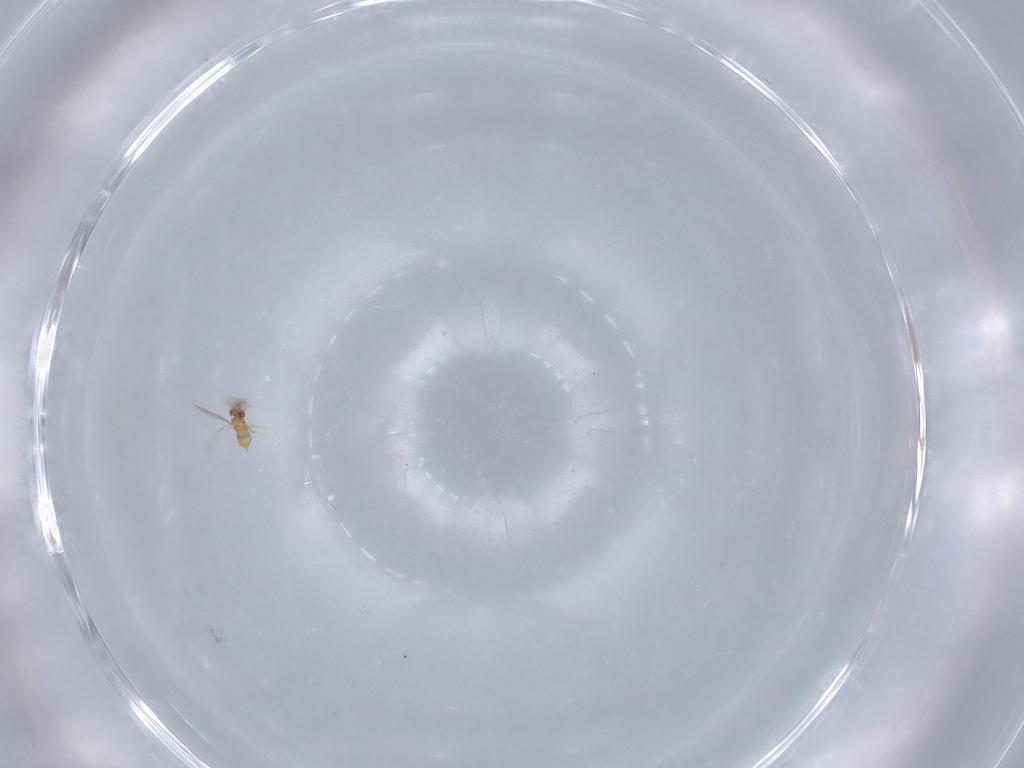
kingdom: Animalia
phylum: Arthropoda
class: Insecta
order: Hymenoptera
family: Trichogrammatidae
